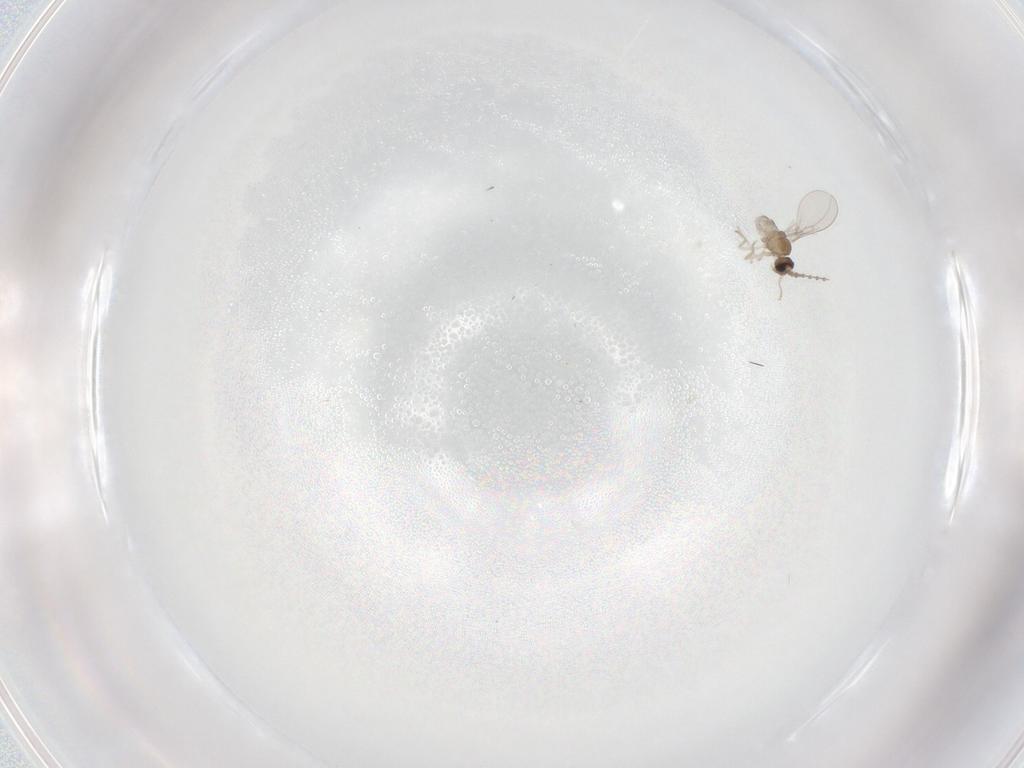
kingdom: Animalia
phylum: Arthropoda
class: Insecta
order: Diptera
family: Cecidomyiidae
